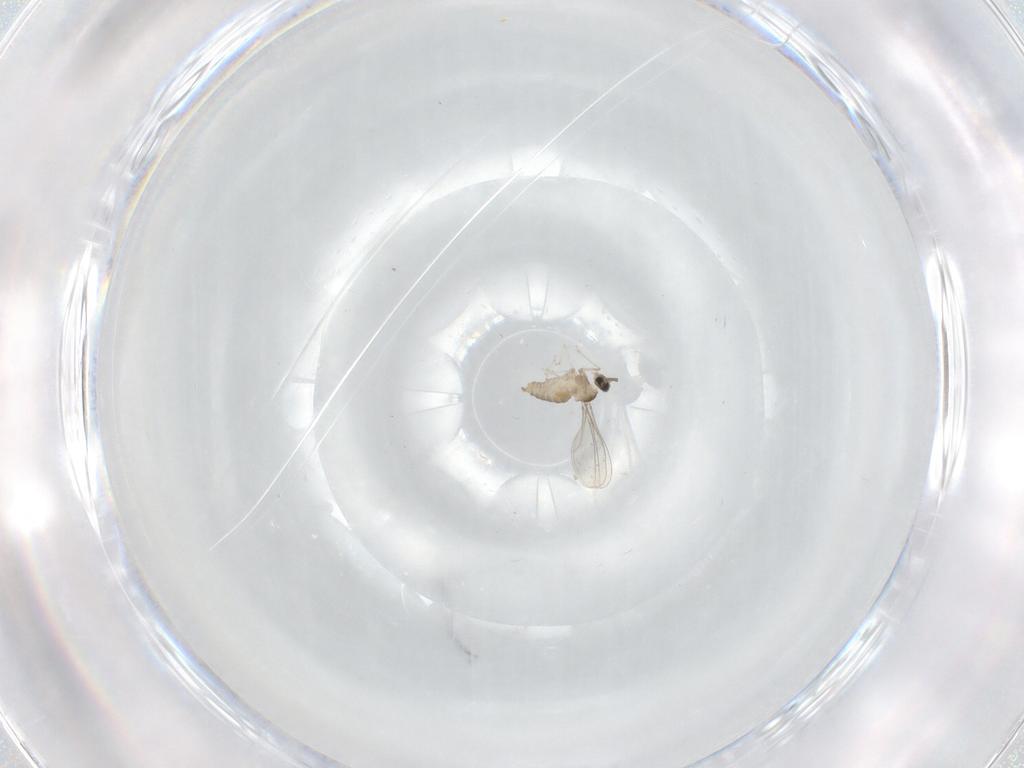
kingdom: Animalia
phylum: Arthropoda
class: Insecta
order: Diptera
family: Cecidomyiidae
